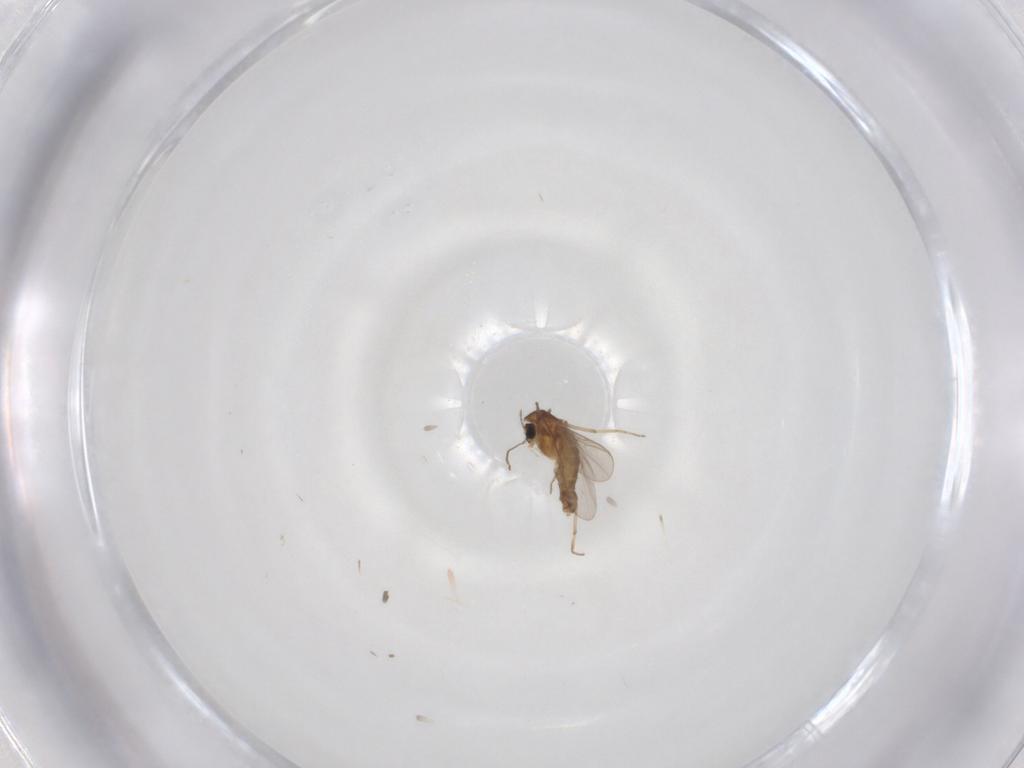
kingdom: Animalia
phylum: Arthropoda
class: Insecta
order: Diptera
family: Chironomidae
